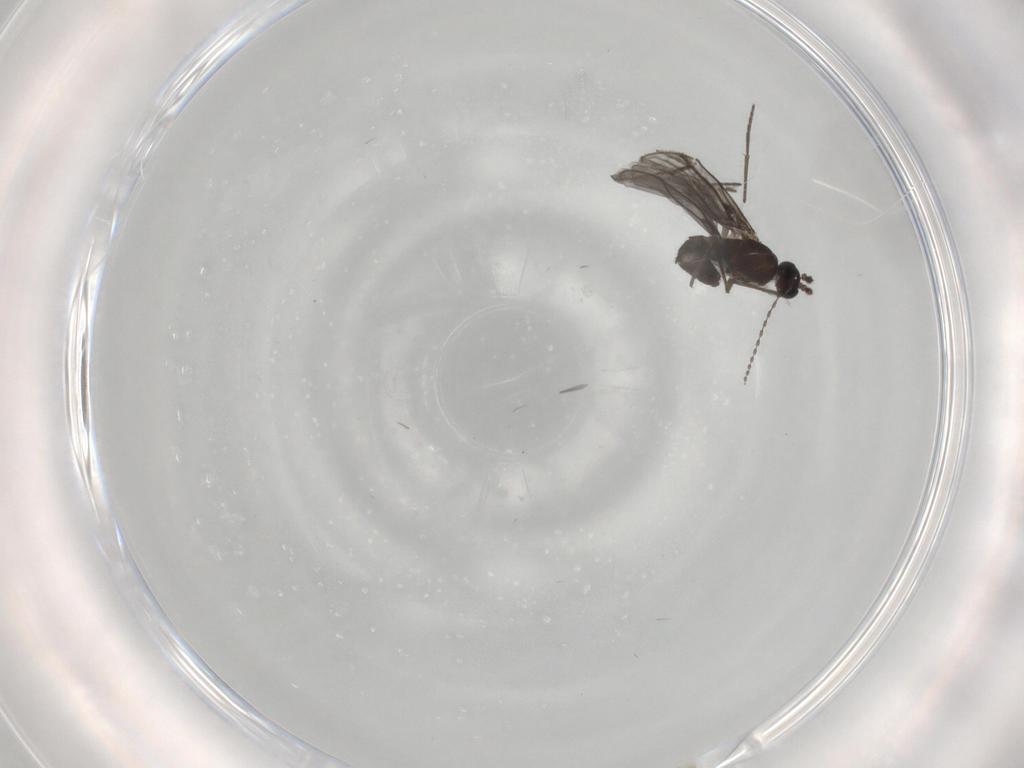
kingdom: Animalia
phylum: Arthropoda
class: Insecta
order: Diptera
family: Cecidomyiidae
